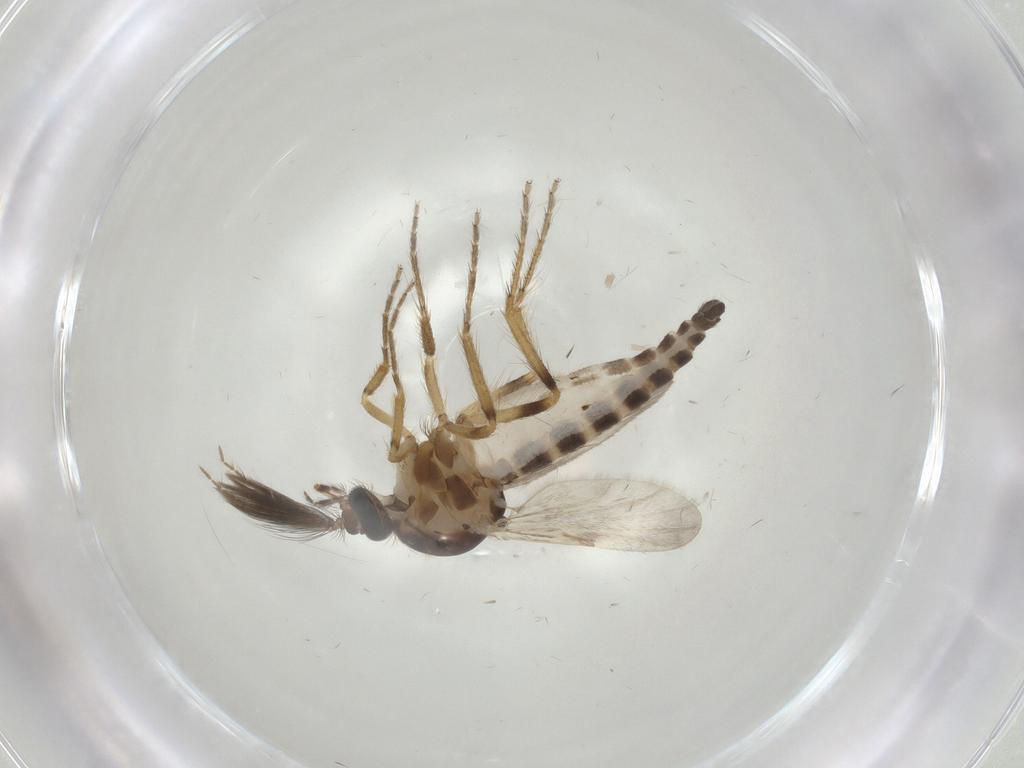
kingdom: Animalia
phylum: Arthropoda
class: Insecta
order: Diptera
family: Ceratopogonidae
